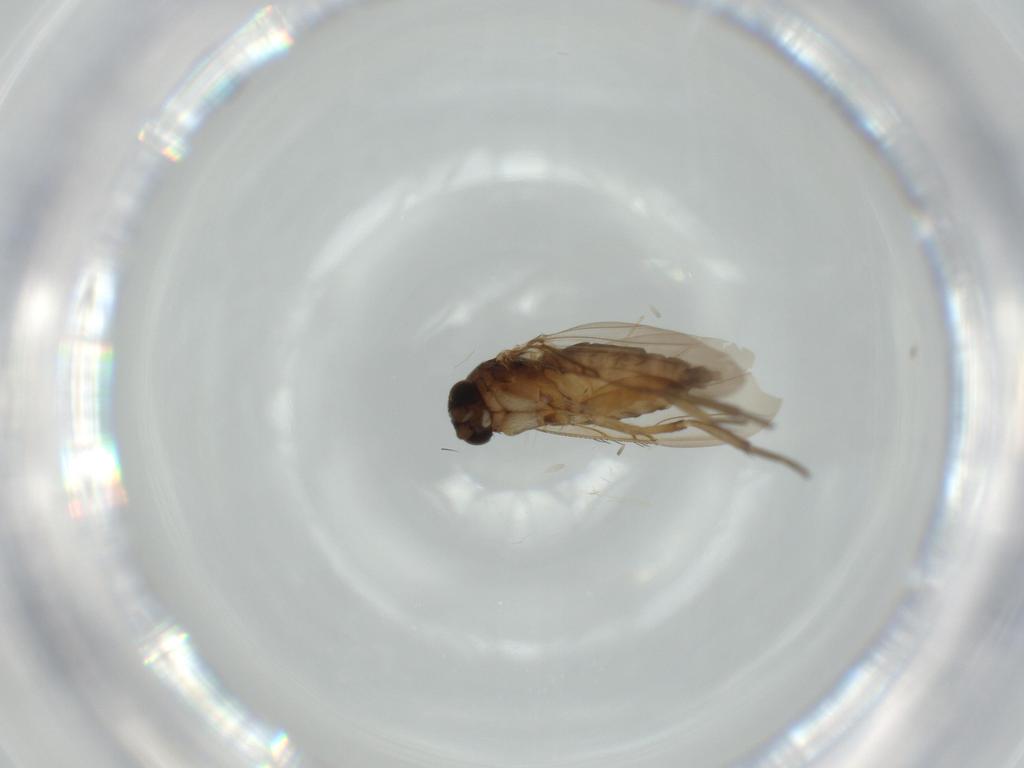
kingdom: Animalia
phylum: Arthropoda
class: Insecta
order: Diptera
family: Phoridae
